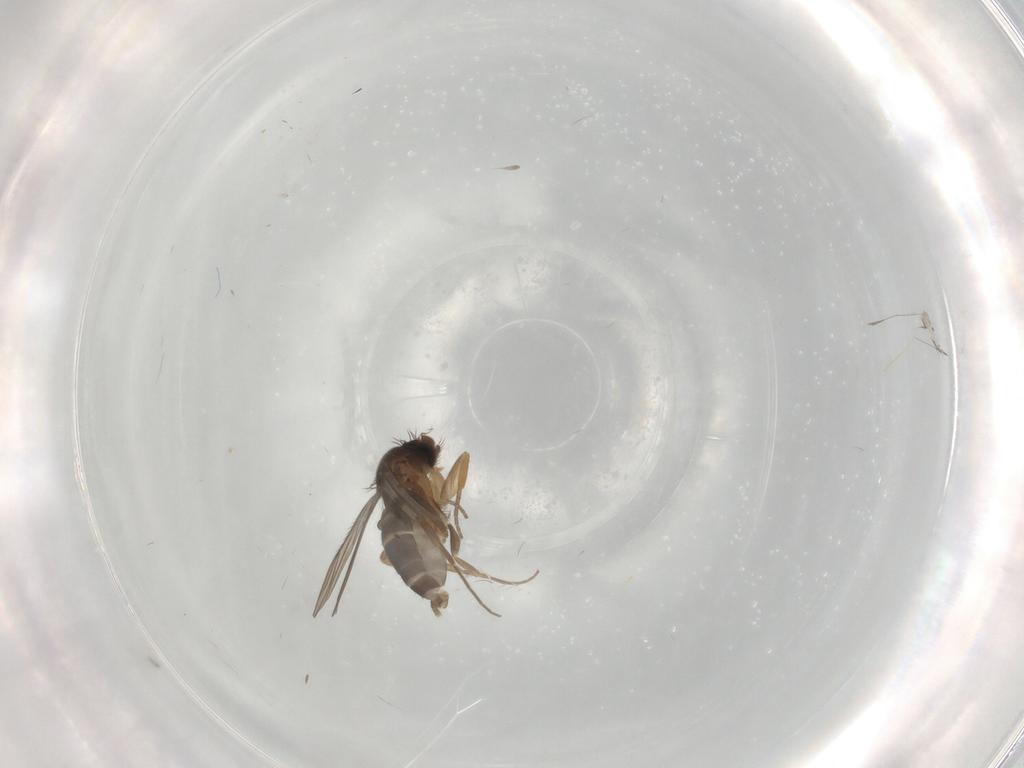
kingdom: Animalia
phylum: Arthropoda
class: Insecta
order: Diptera
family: Phoridae
